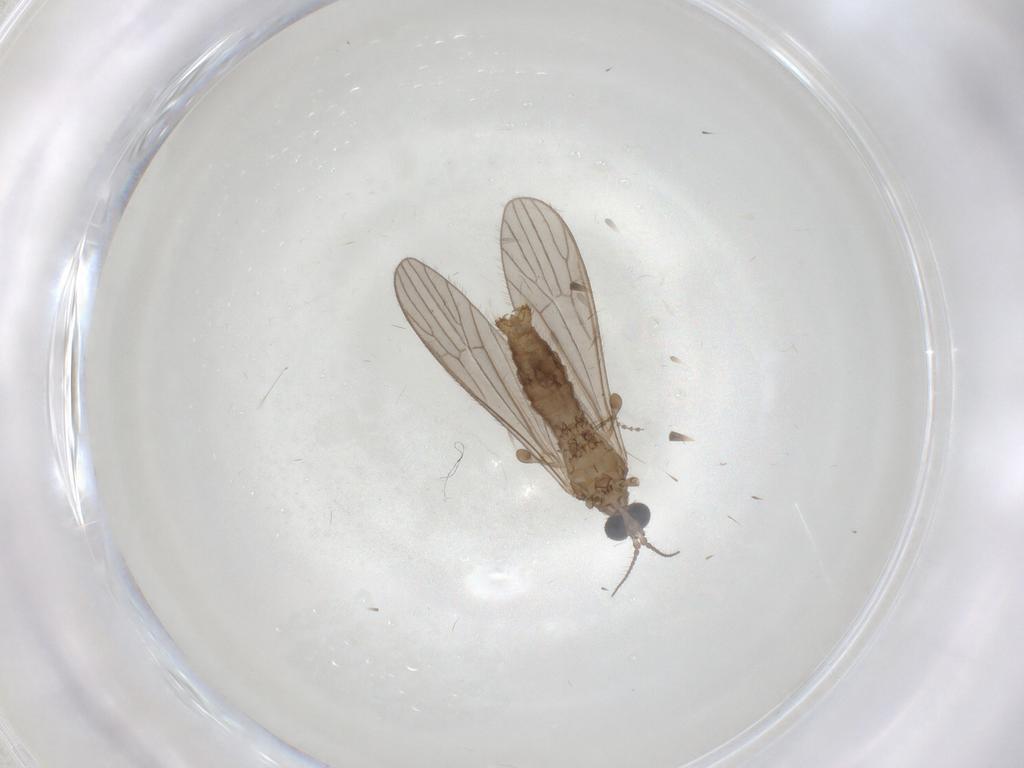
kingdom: Animalia
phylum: Arthropoda
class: Insecta
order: Diptera
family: Limoniidae
